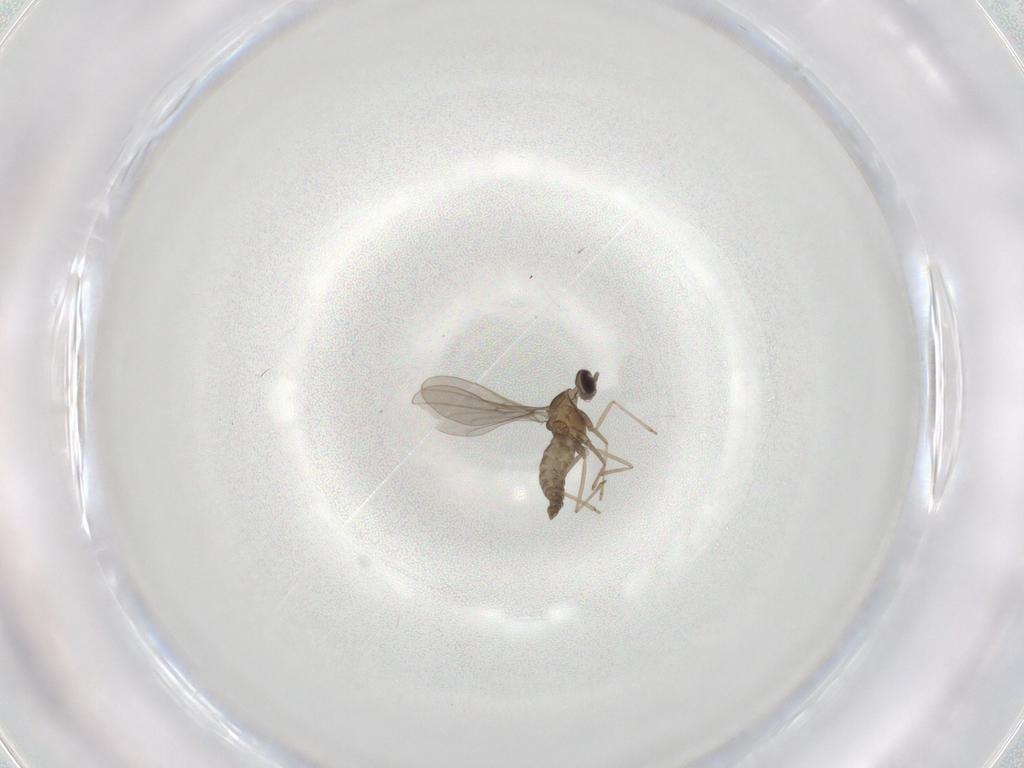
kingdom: Animalia
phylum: Arthropoda
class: Insecta
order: Diptera
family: Cecidomyiidae
